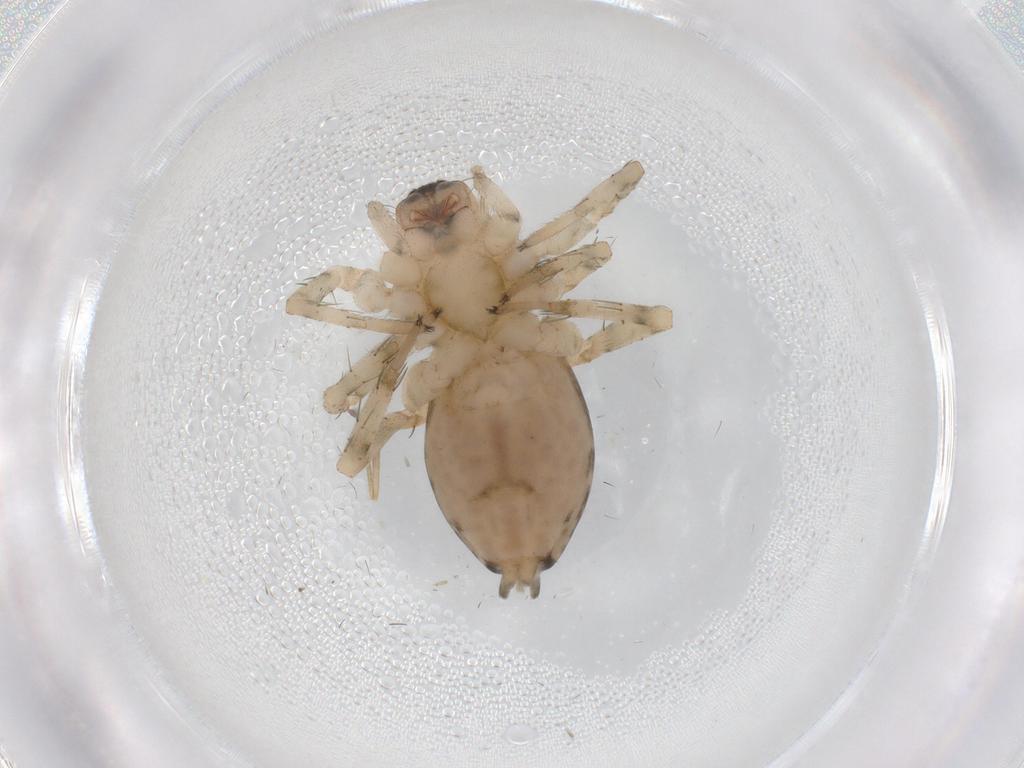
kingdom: Animalia
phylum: Arthropoda
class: Arachnida
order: Araneae
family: Anyphaenidae
